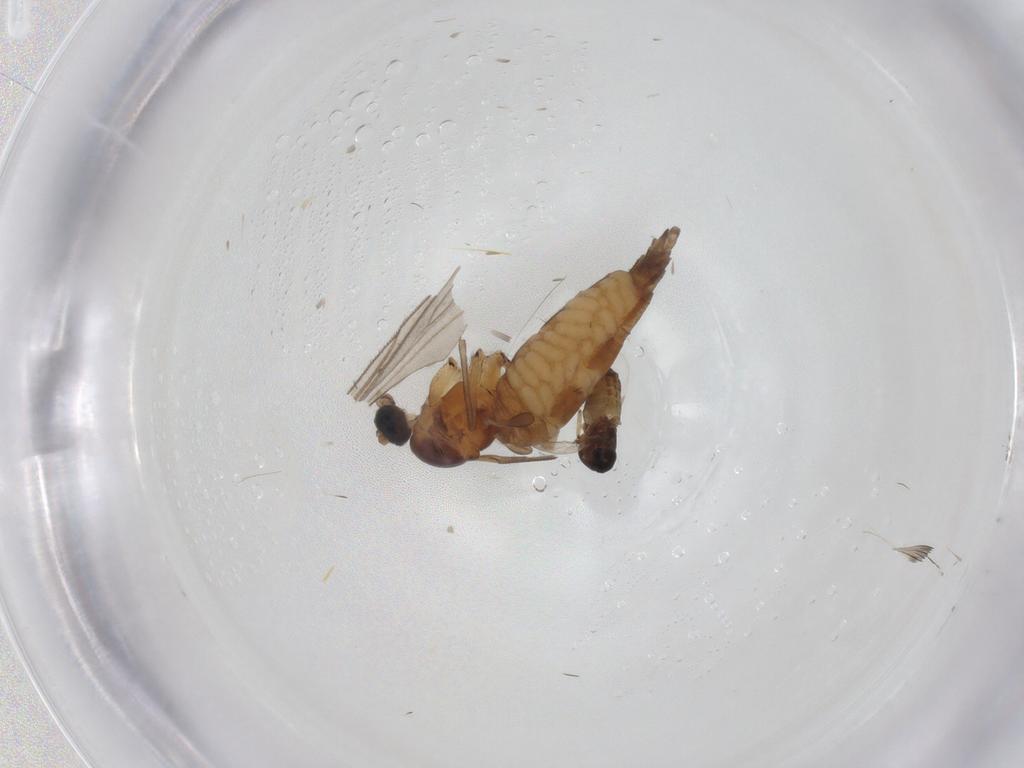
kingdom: Animalia
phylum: Arthropoda
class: Insecta
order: Diptera
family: Ceratopogonidae
